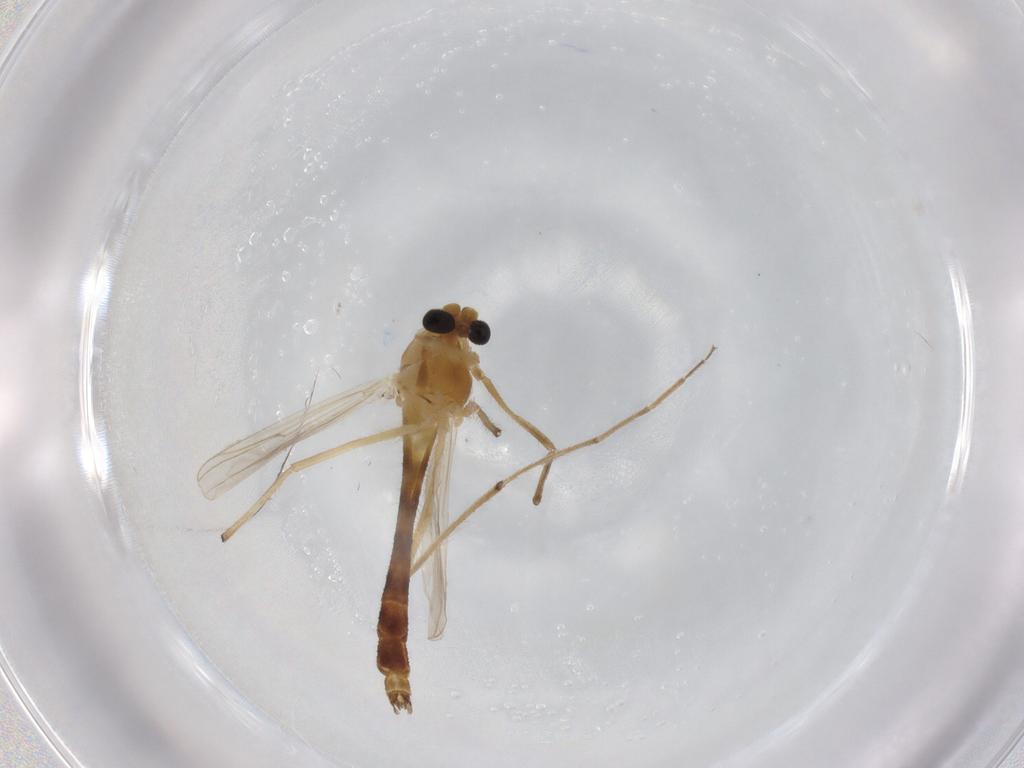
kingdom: Animalia
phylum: Arthropoda
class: Insecta
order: Diptera
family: Chironomidae
